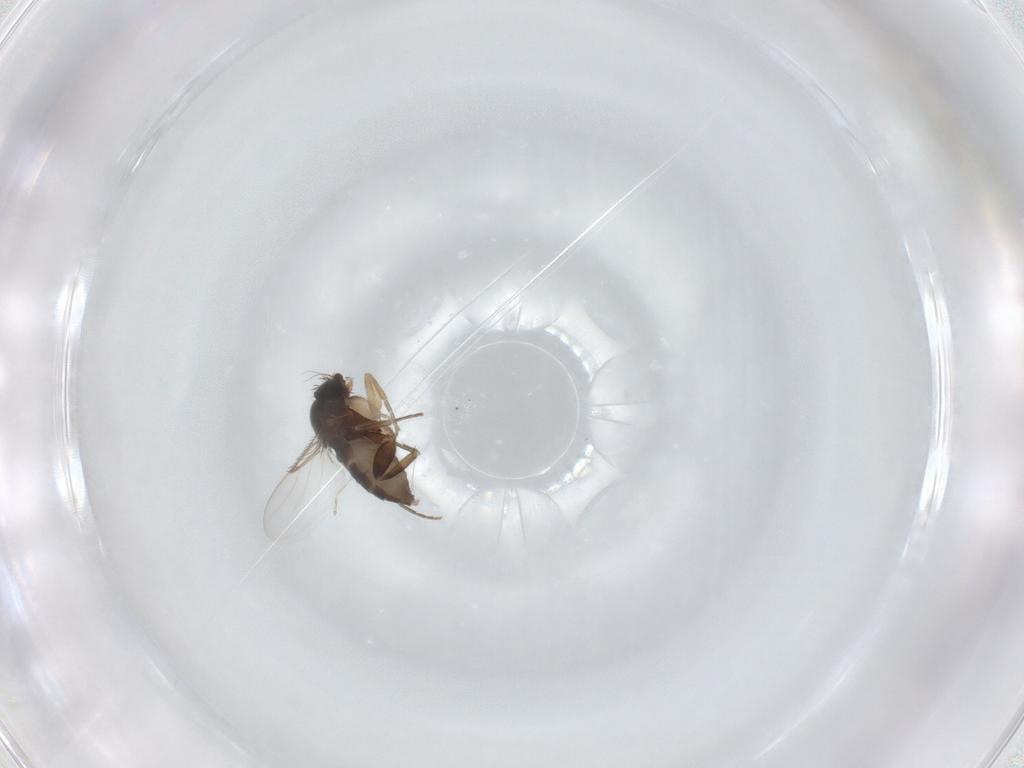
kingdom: Animalia
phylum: Arthropoda
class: Insecta
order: Diptera
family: Phoridae
